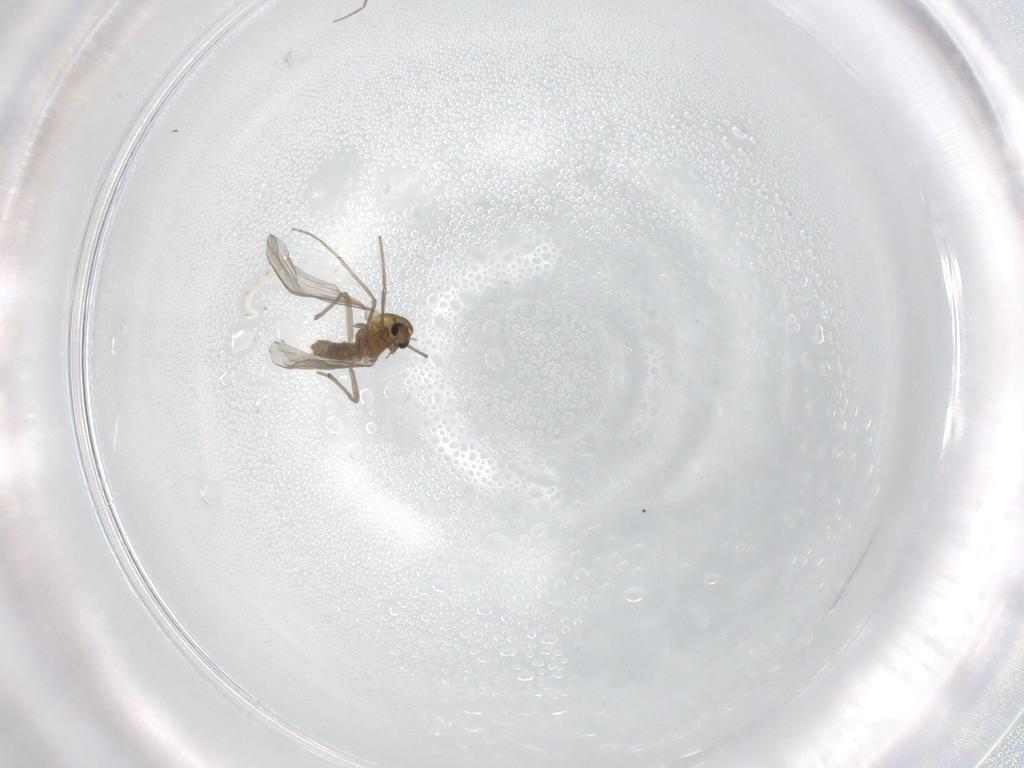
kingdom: Animalia
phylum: Arthropoda
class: Insecta
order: Diptera
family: Chironomidae
